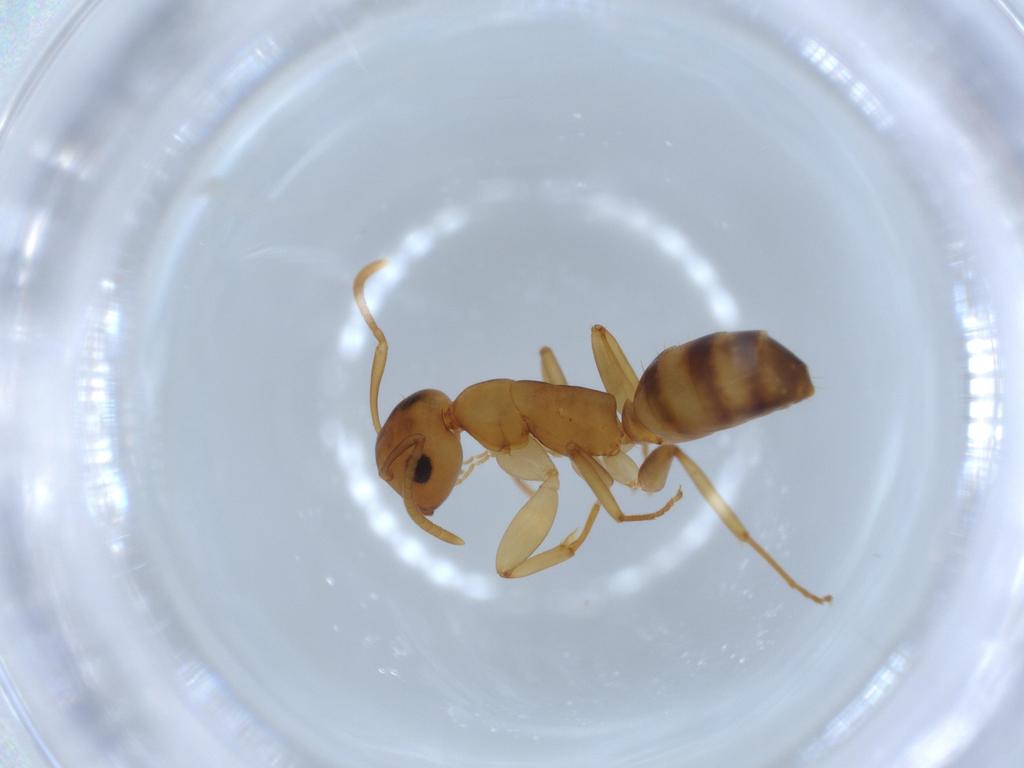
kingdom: Animalia
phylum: Arthropoda
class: Insecta
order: Hymenoptera
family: Formicidae
